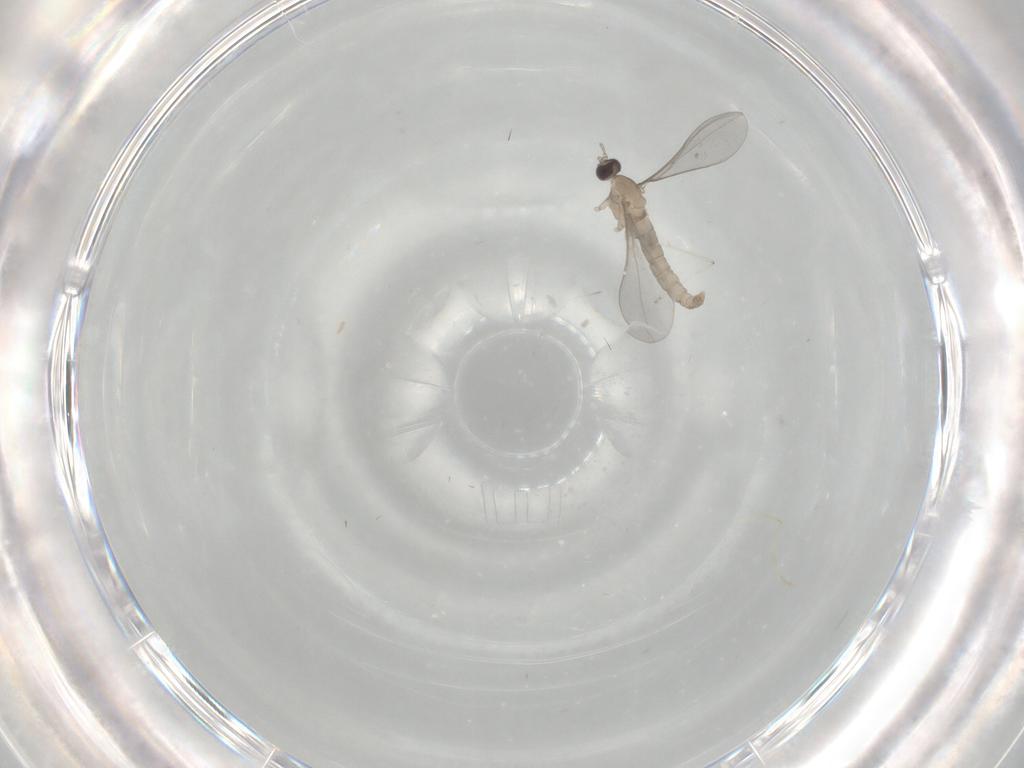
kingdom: Animalia
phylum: Arthropoda
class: Insecta
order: Diptera
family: Cecidomyiidae
